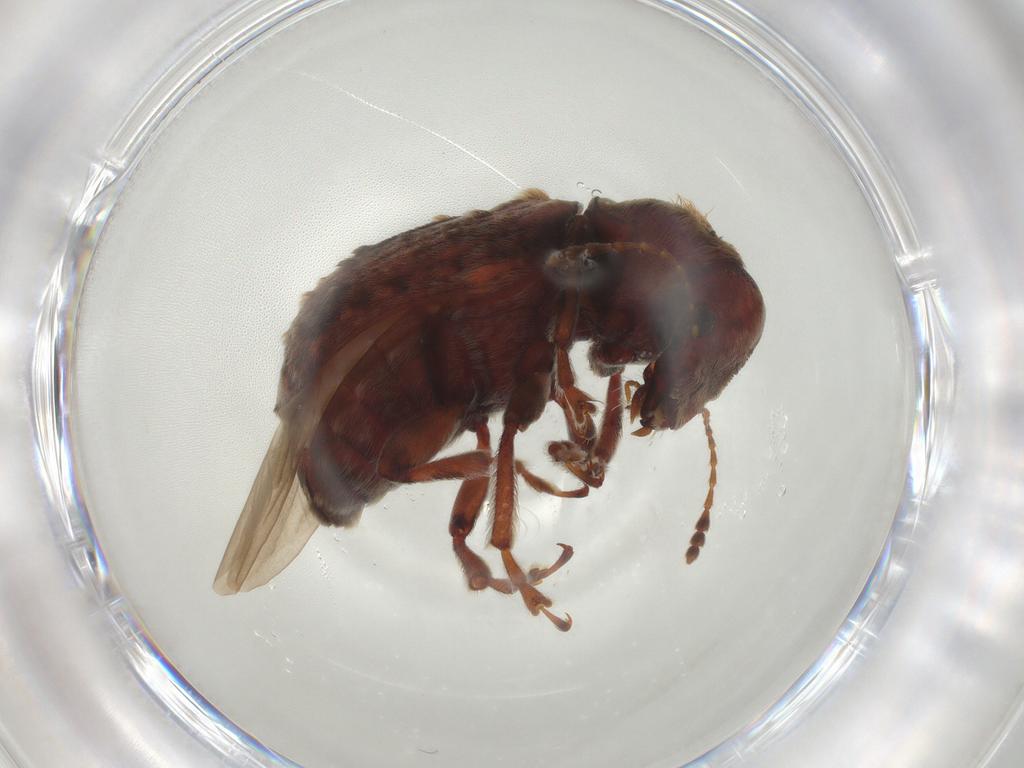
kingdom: Animalia
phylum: Arthropoda
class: Insecta
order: Coleoptera
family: Anthribidae
